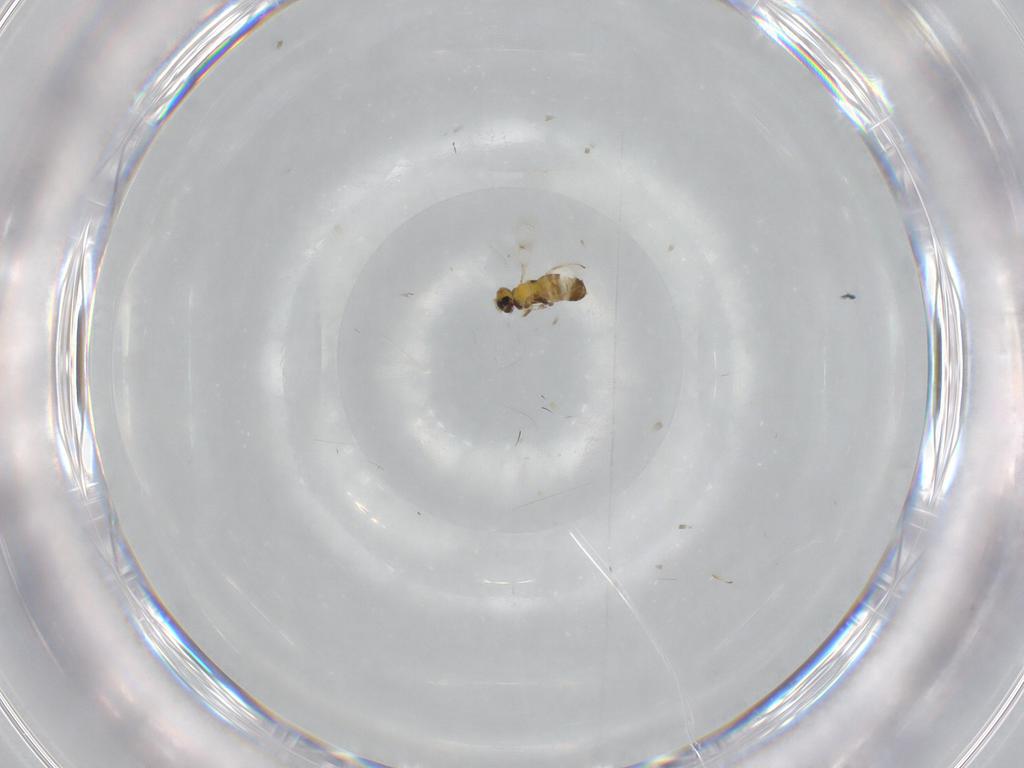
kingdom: Animalia
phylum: Arthropoda
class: Insecta
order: Hymenoptera
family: Trichogrammatidae
